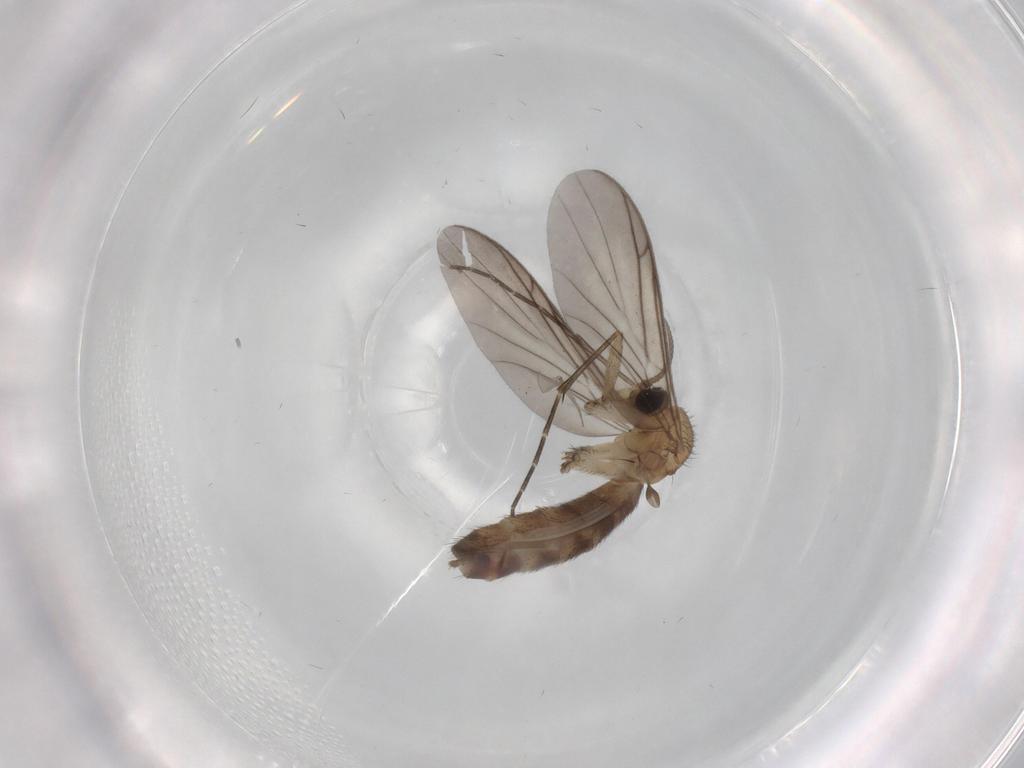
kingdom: Animalia
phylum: Arthropoda
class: Insecta
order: Diptera
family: Keroplatidae
